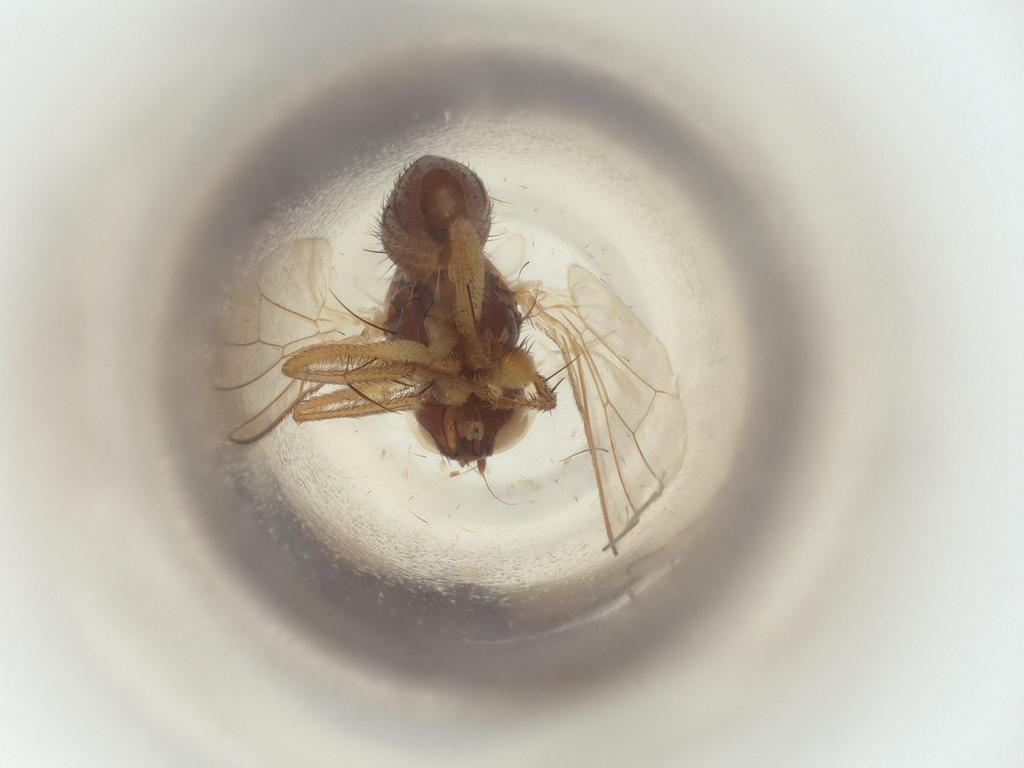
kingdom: Animalia
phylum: Arthropoda
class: Insecta
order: Diptera
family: Muscidae
